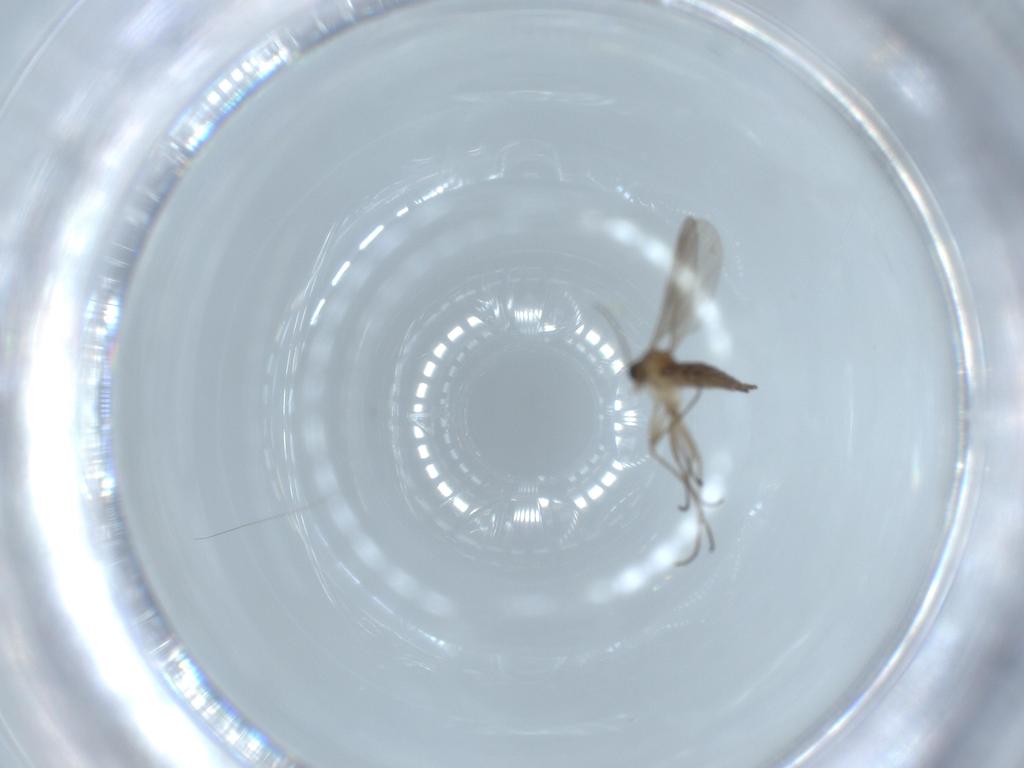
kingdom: Animalia
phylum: Arthropoda
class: Insecta
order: Diptera
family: Sciaridae
